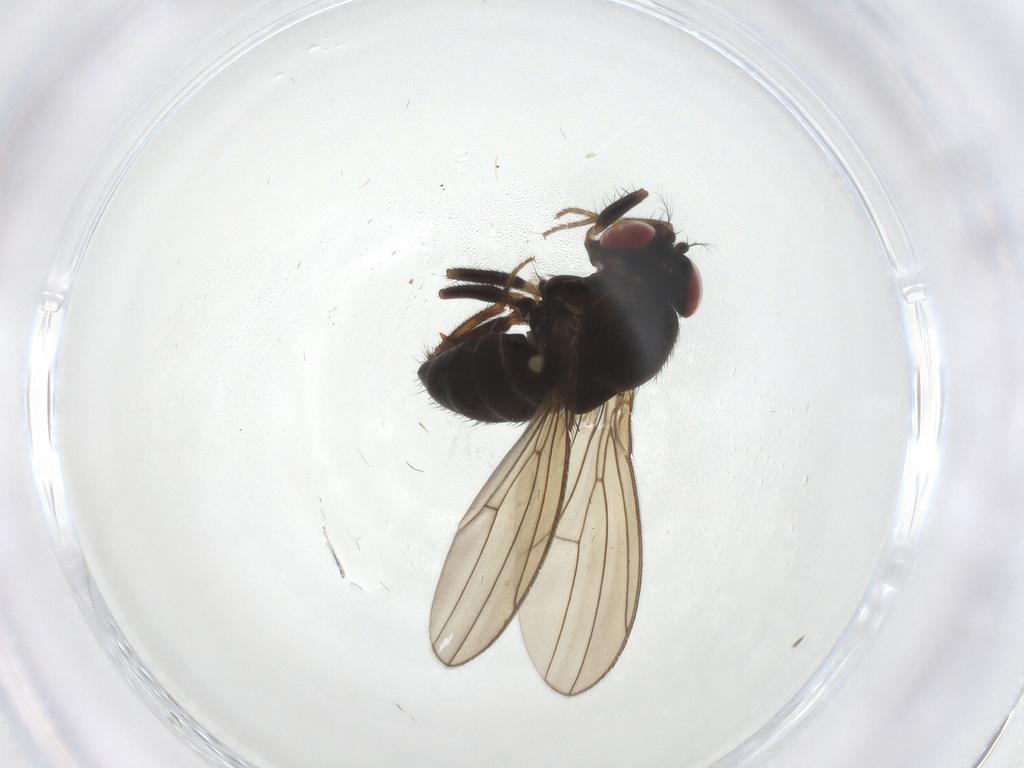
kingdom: Animalia
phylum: Arthropoda
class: Insecta
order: Diptera
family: Drosophilidae
